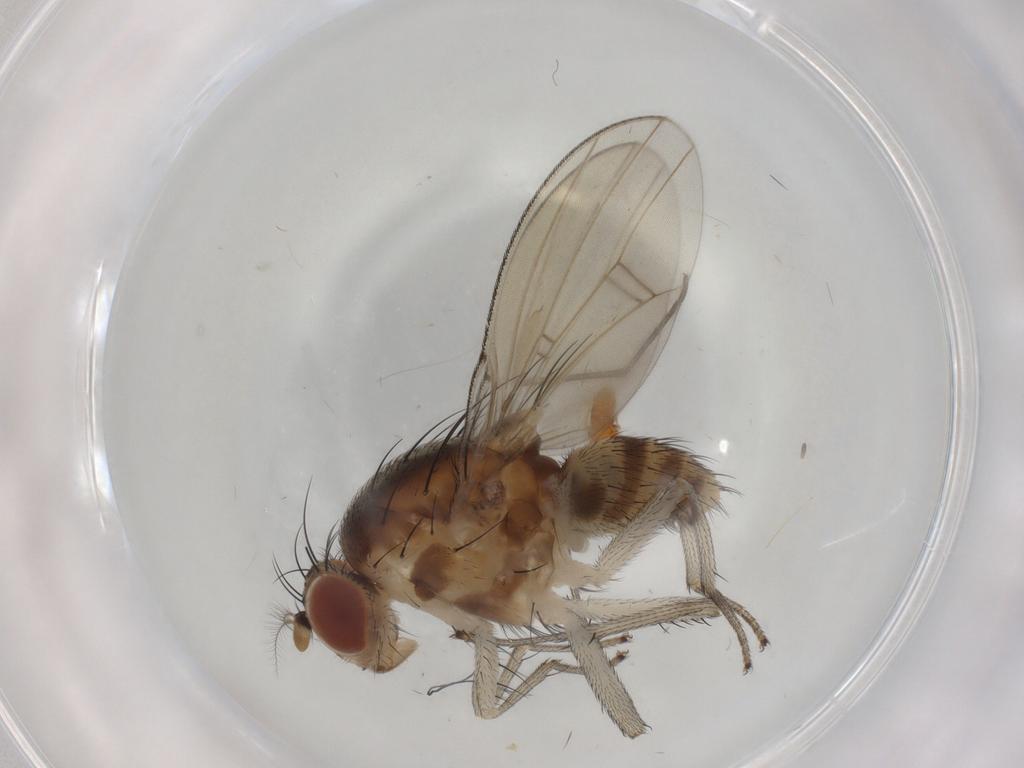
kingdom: Animalia
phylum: Arthropoda
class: Insecta
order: Diptera
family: Sciaridae
